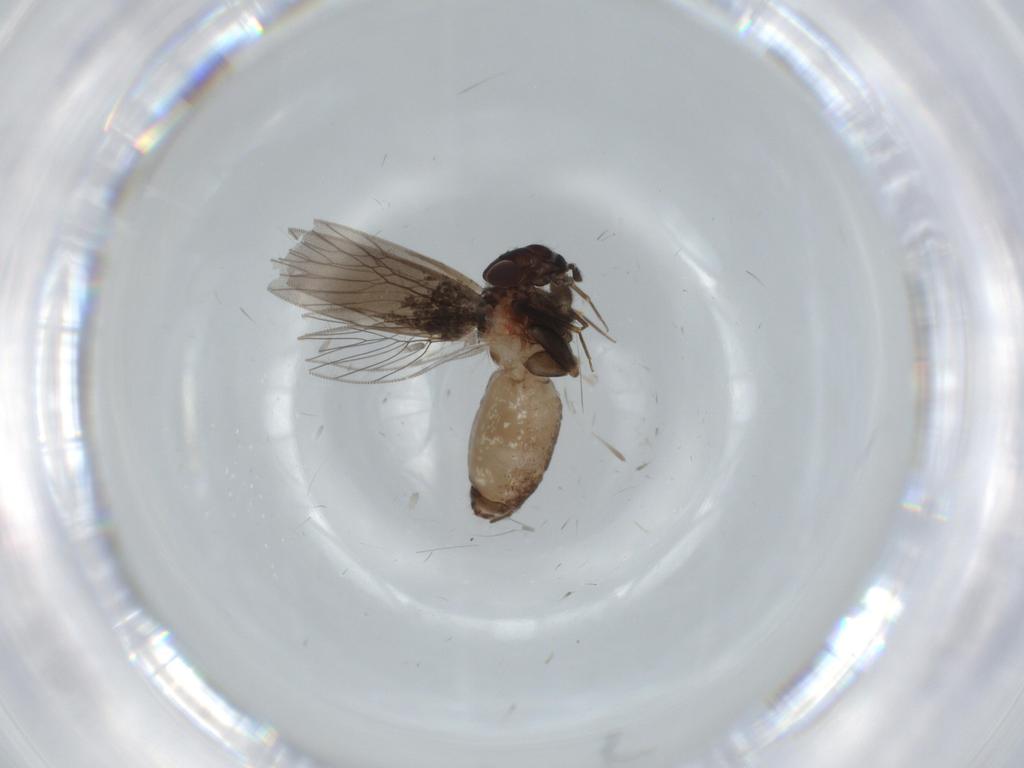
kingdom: Animalia
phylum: Arthropoda
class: Insecta
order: Psocodea
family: Lepidopsocidae
